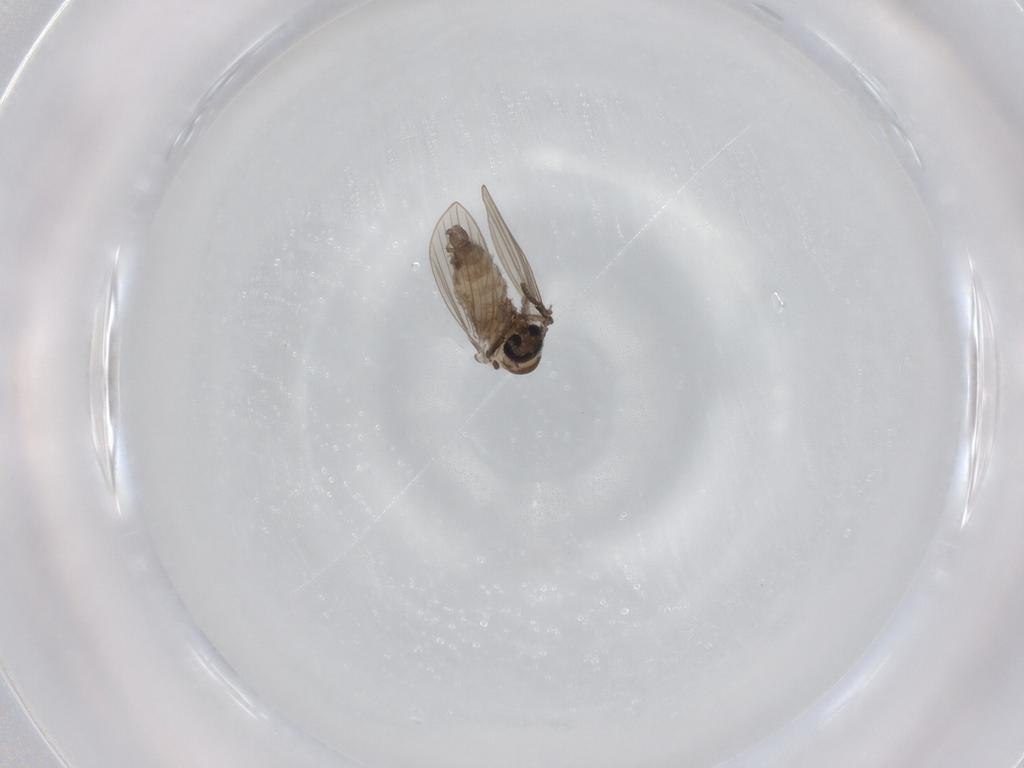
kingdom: Animalia
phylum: Arthropoda
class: Insecta
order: Diptera
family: Psychodidae
